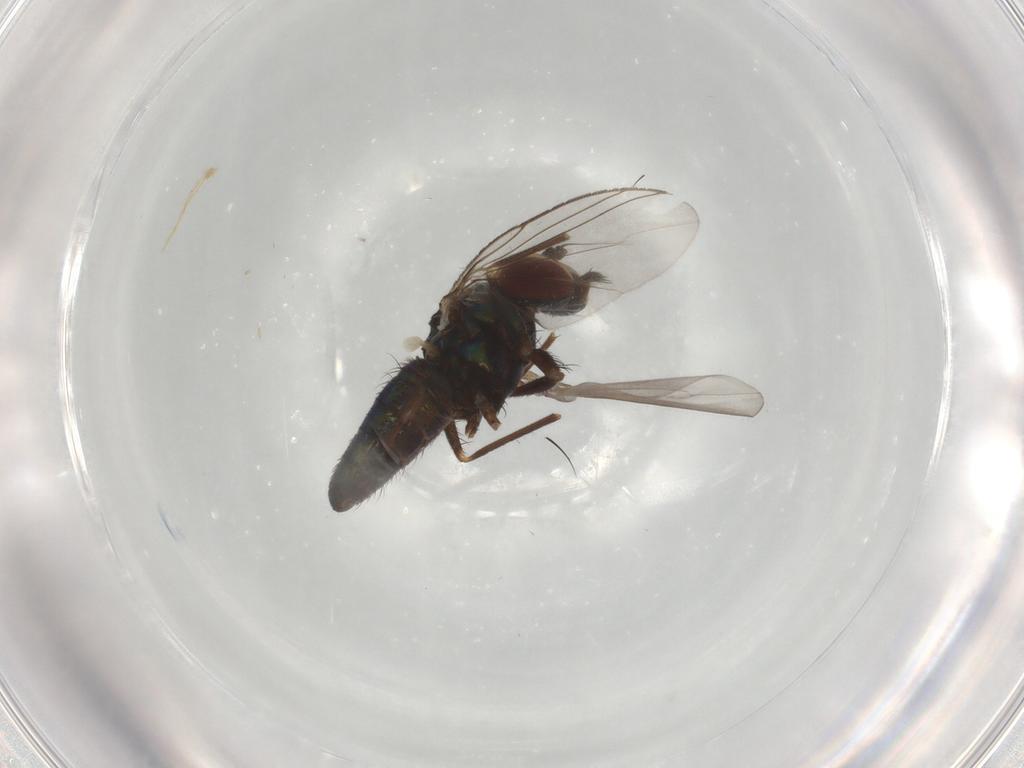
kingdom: Animalia
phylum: Arthropoda
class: Insecta
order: Diptera
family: Dolichopodidae
